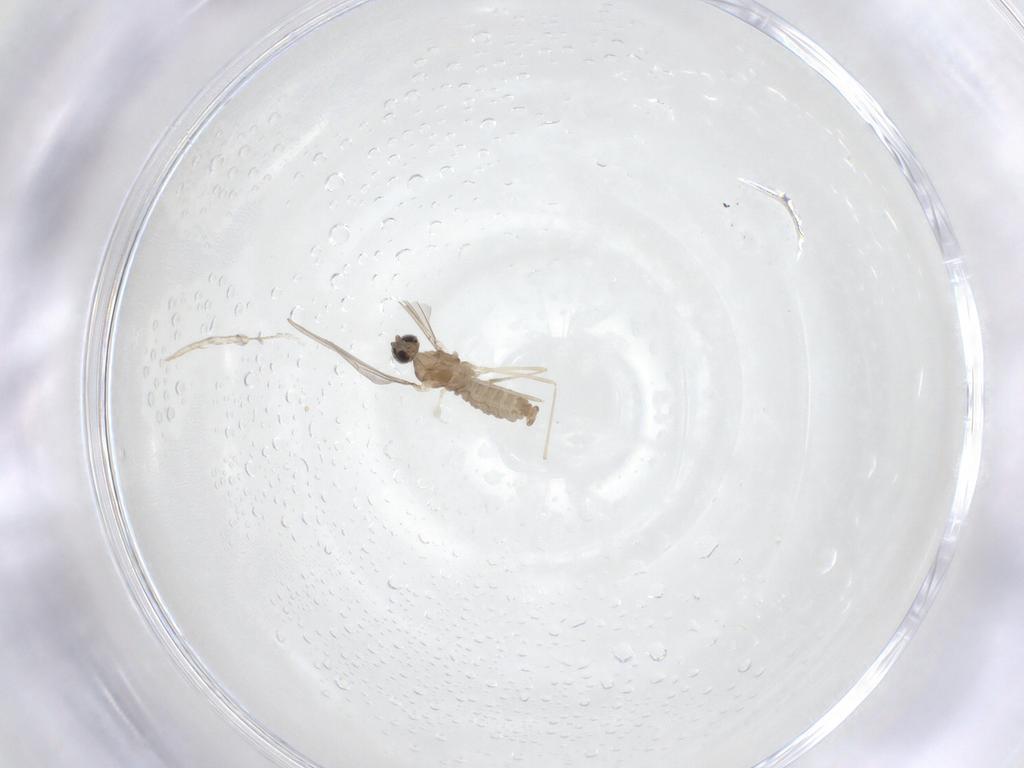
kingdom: Animalia
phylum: Arthropoda
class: Insecta
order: Diptera
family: Cecidomyiidae
